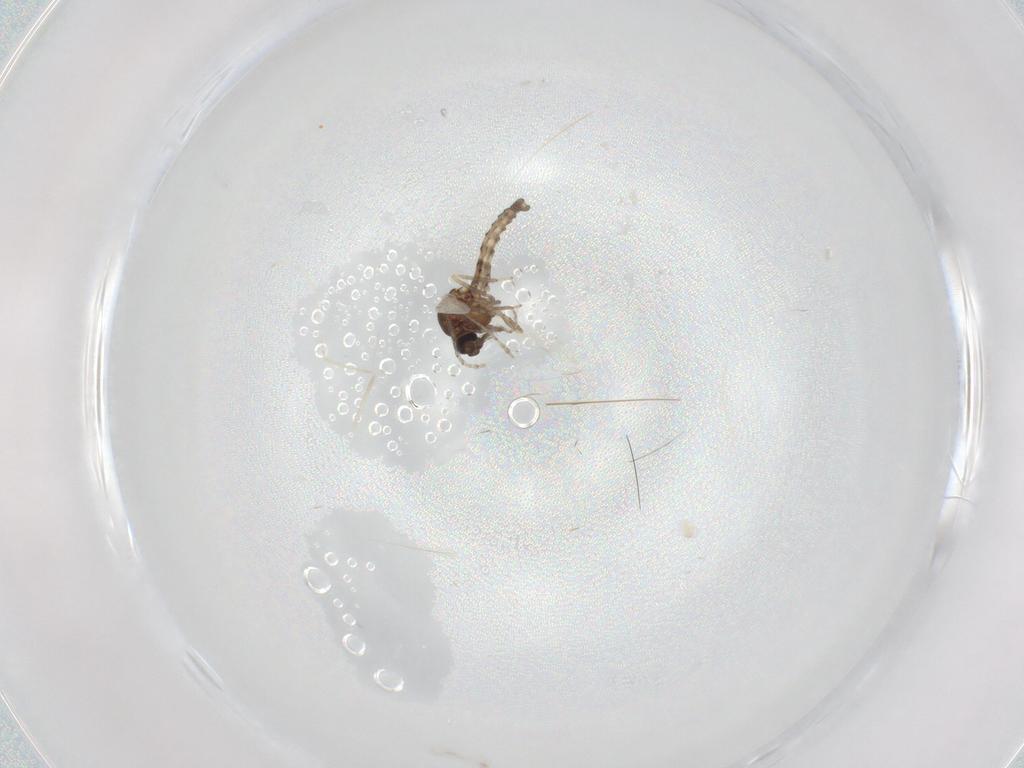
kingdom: Animalia
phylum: Arthropoda
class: Insecta
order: Diptera
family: Ceratopogonidae
